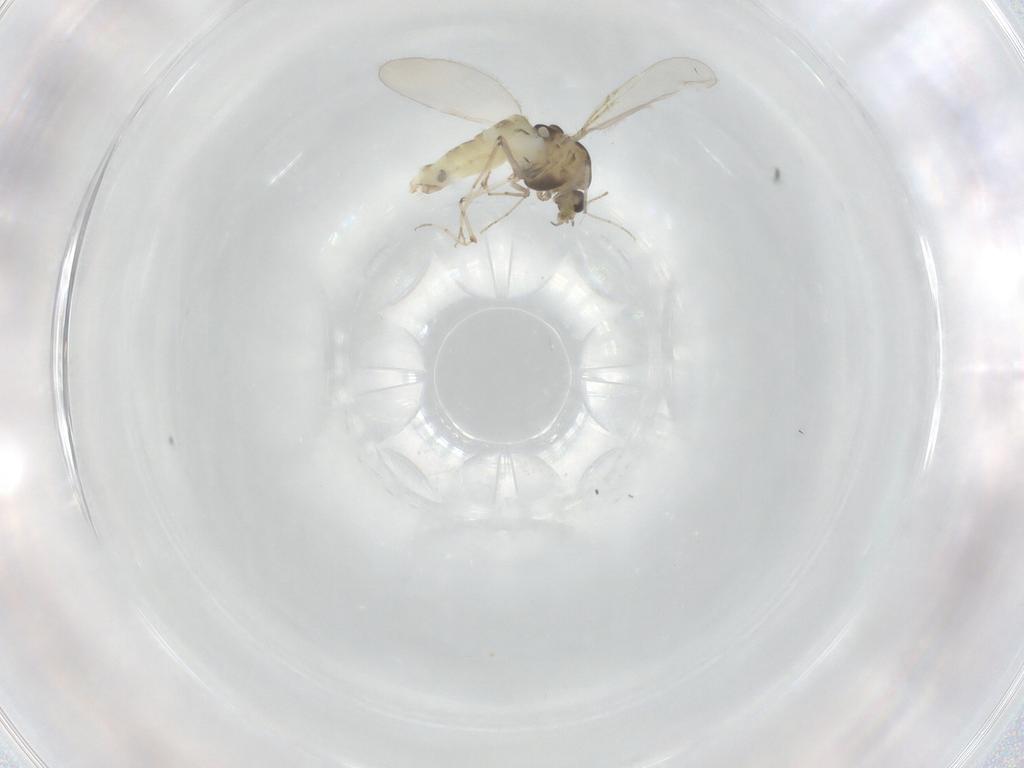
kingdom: Animalia
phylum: Arthropoda
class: Insecta
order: Diptera
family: Chironomidae
